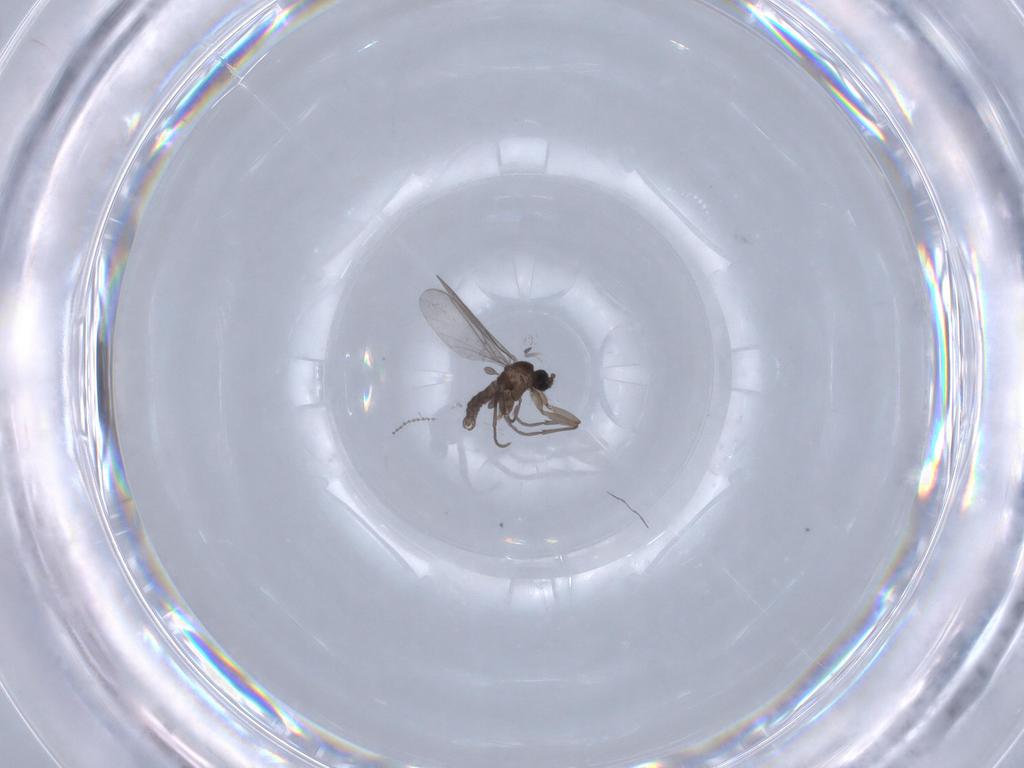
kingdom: Animalia
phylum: Arthropoda
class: Insecta
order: Diptera
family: Sciaridae
